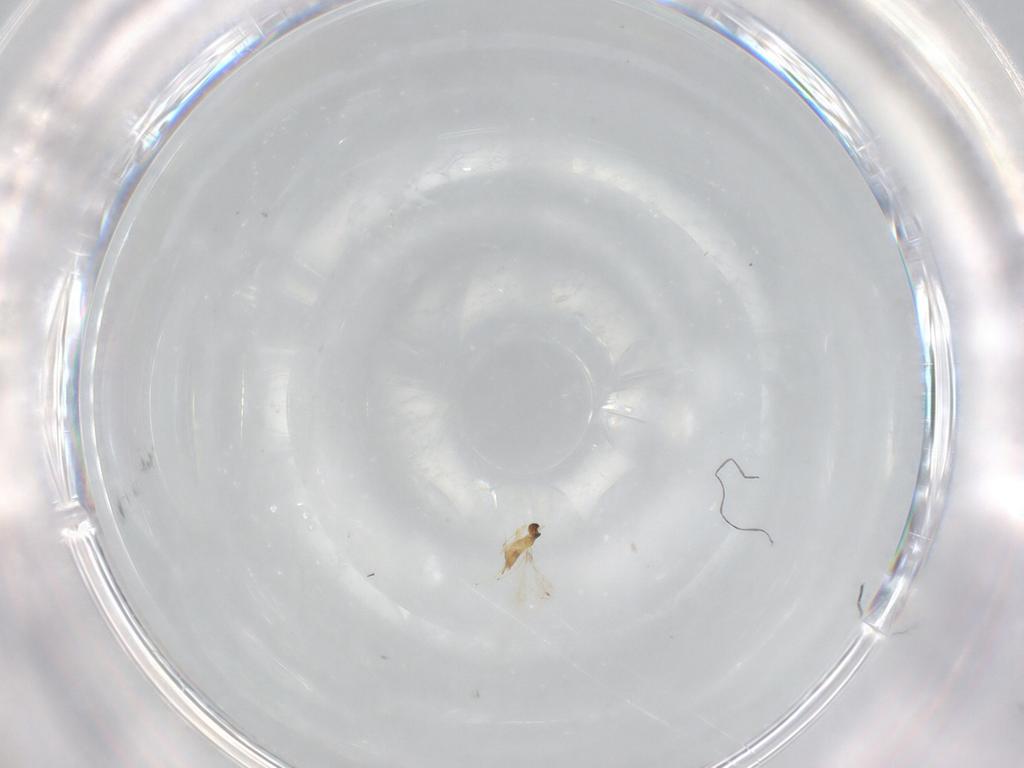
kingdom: Animalia
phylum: Arthropoda
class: Insecta
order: Hymenoptera
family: Mymaridae
